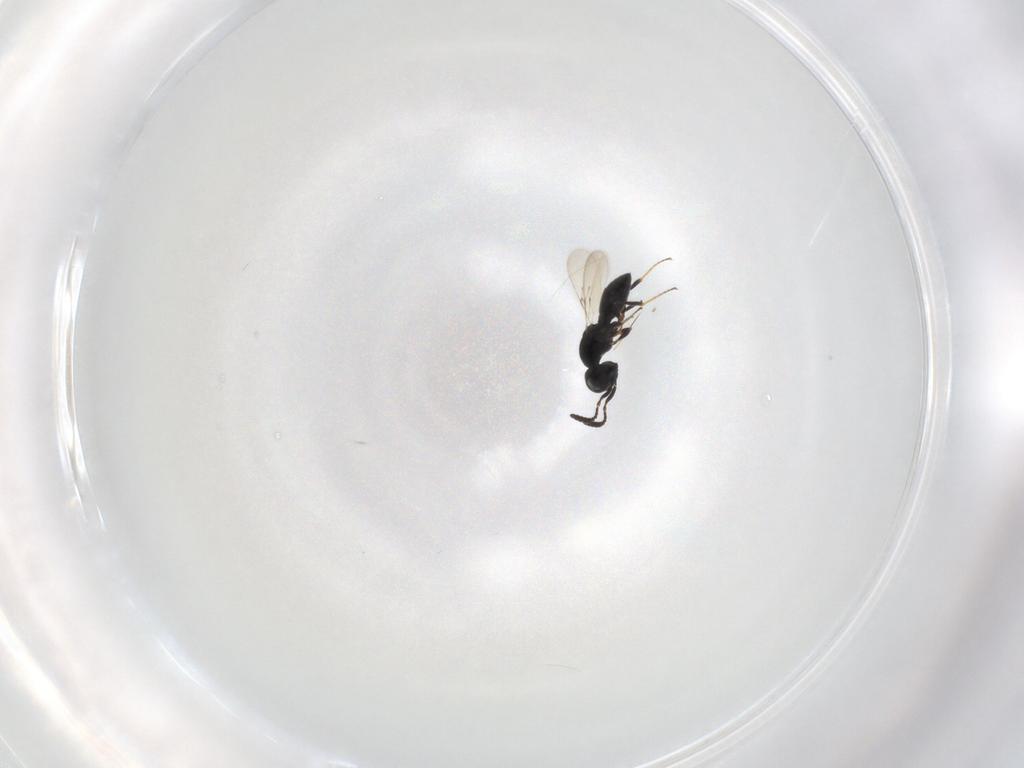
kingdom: Animalia
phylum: Arthropoda
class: Insecta
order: Hymenoptera
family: Scelionidae
